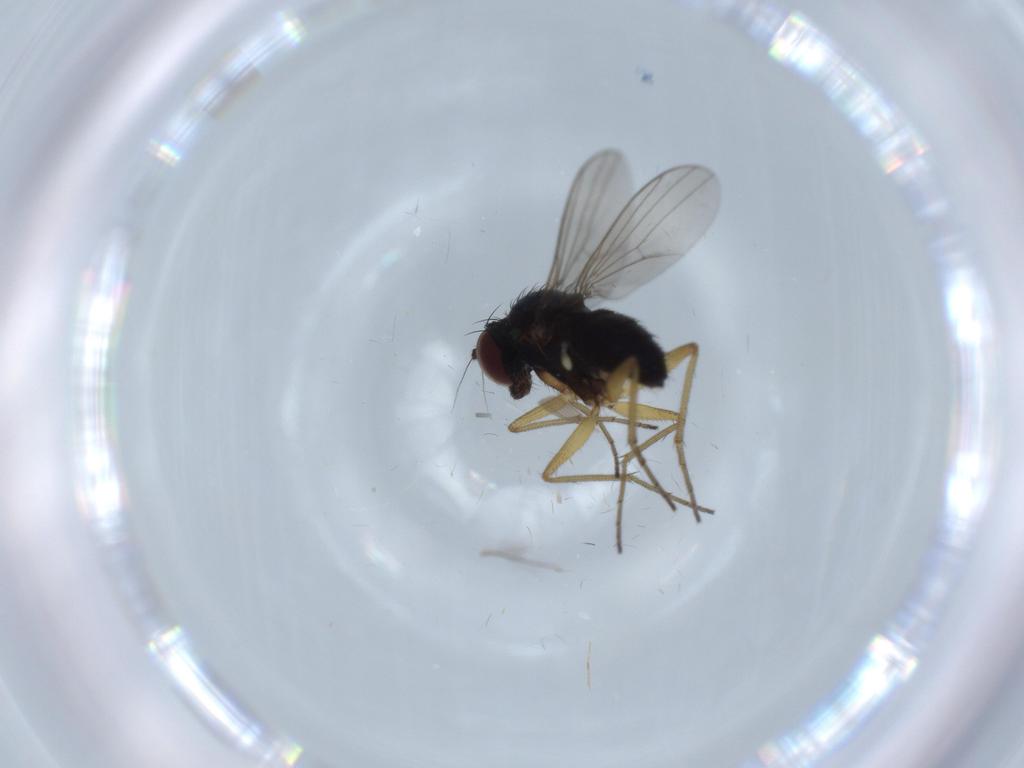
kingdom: Animalia
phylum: Arthropoda
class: Insecta
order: Diptera
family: Dolichopodidae
